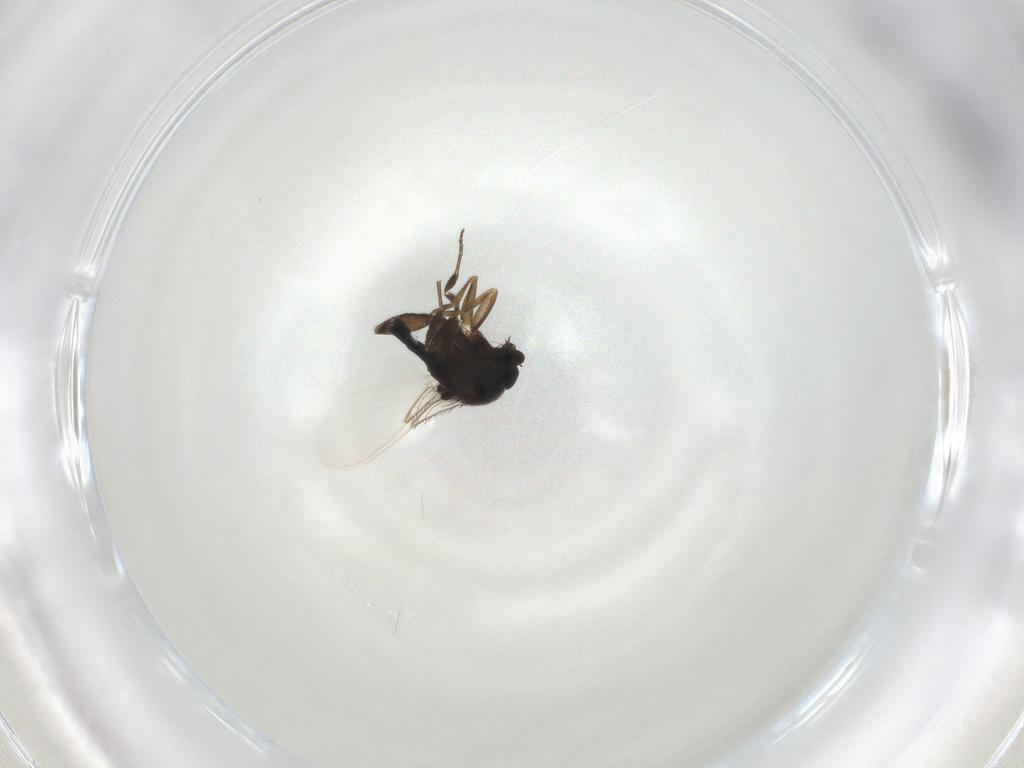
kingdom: Animalia
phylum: Arthropoda
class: Insecta
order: Diptera
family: Phoridae
